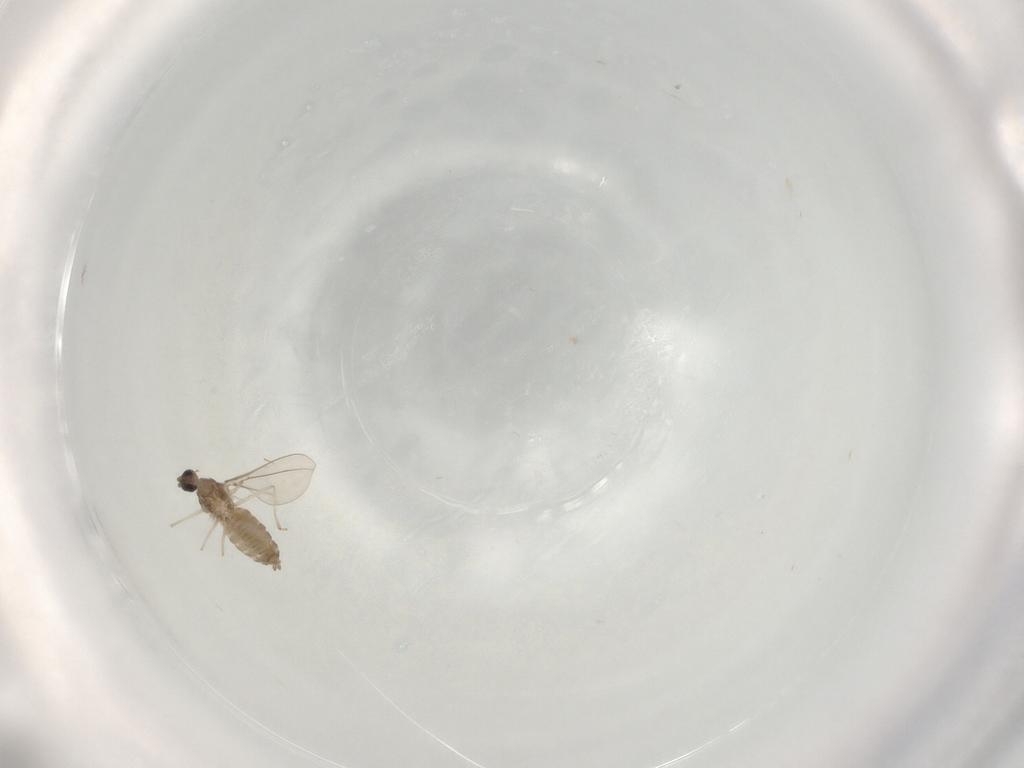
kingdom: Animalia
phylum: Arthropoda
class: Insecta
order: Diptera
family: Cecidomyiidae
